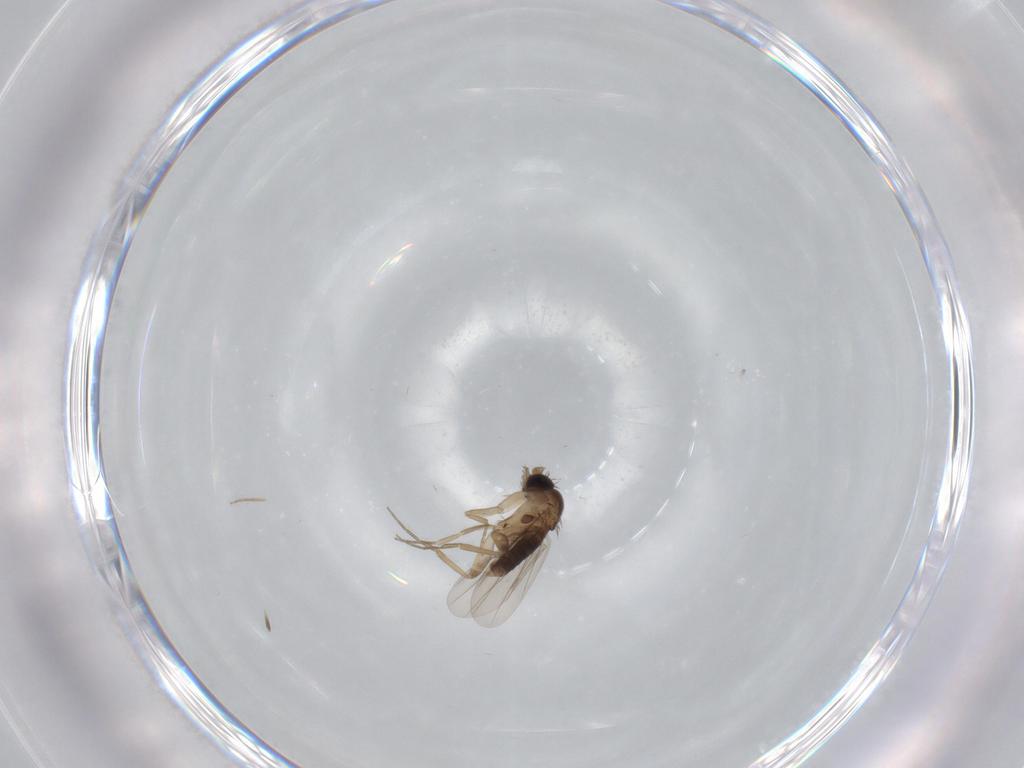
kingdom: Animalia
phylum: Arthropoda
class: Insecta
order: Diptera
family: Phoridae
